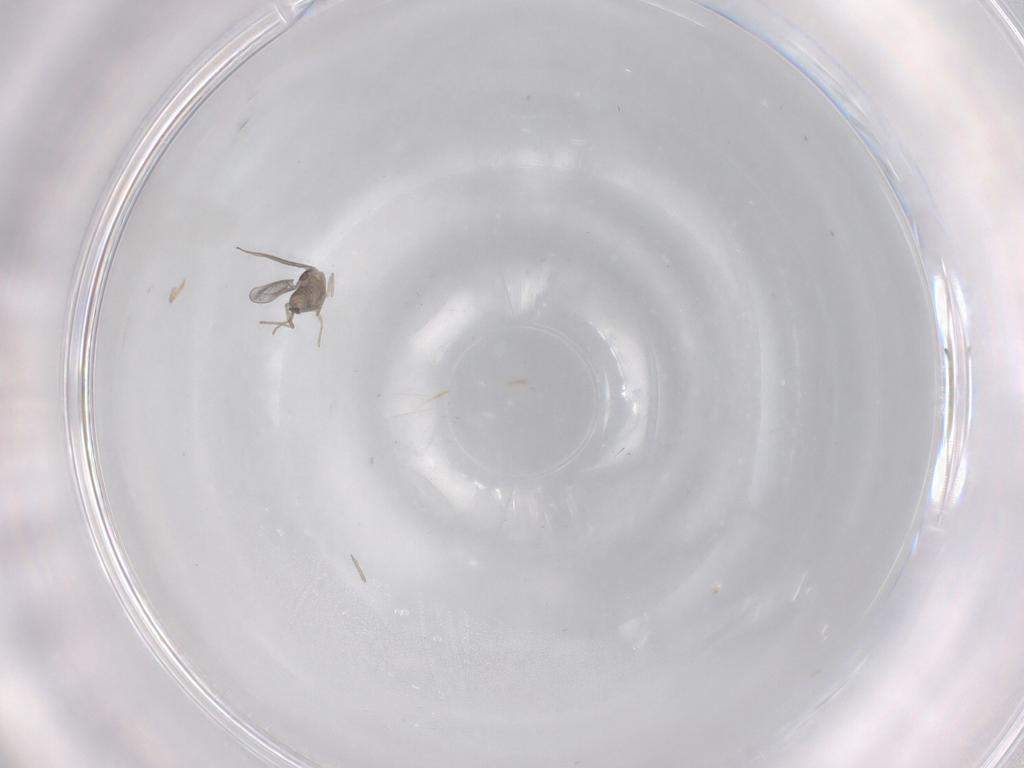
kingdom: Animalia
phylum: Arthropoda
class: Insecta
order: Diptera
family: Cecidomyiidae
